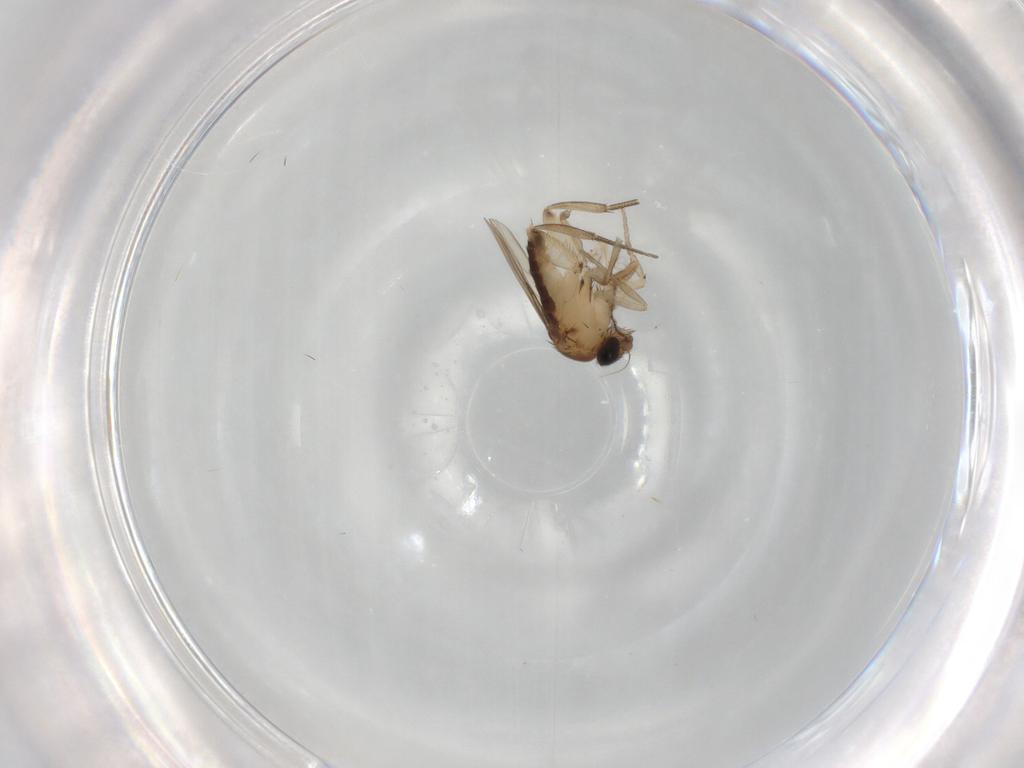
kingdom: Animalia
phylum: Arthropoda
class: Insecta
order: Diptera
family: Phoridae
